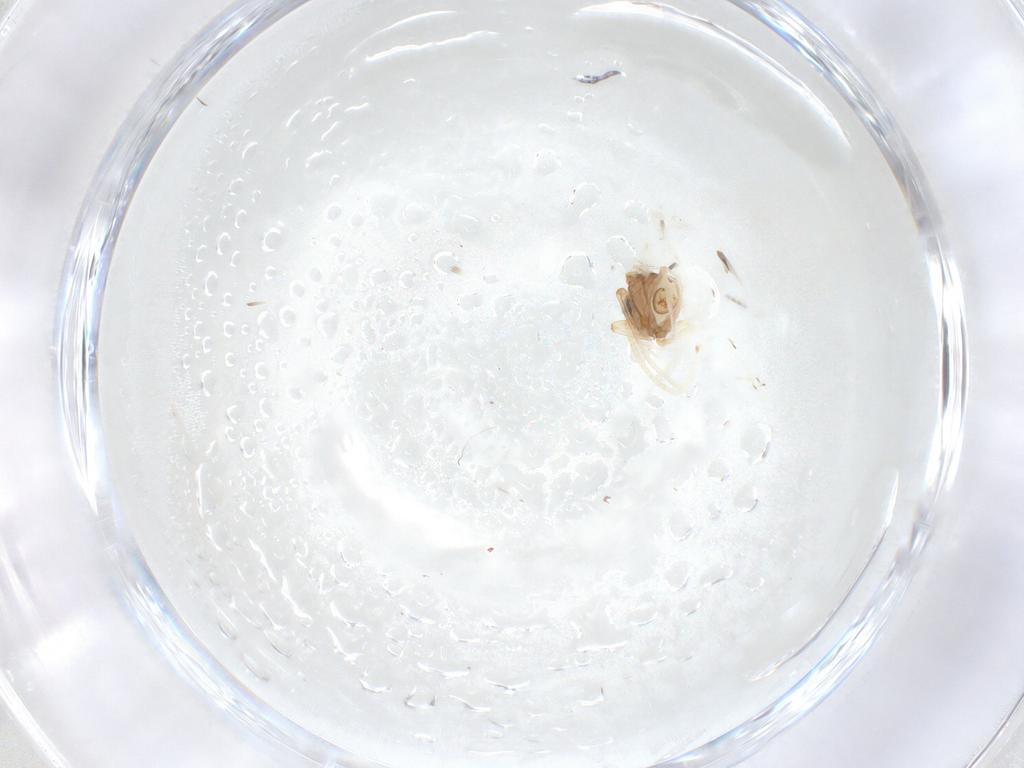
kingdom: Animalia
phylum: Arthropoda
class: Insecta
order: Neuroptera
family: Coniopterygidae
